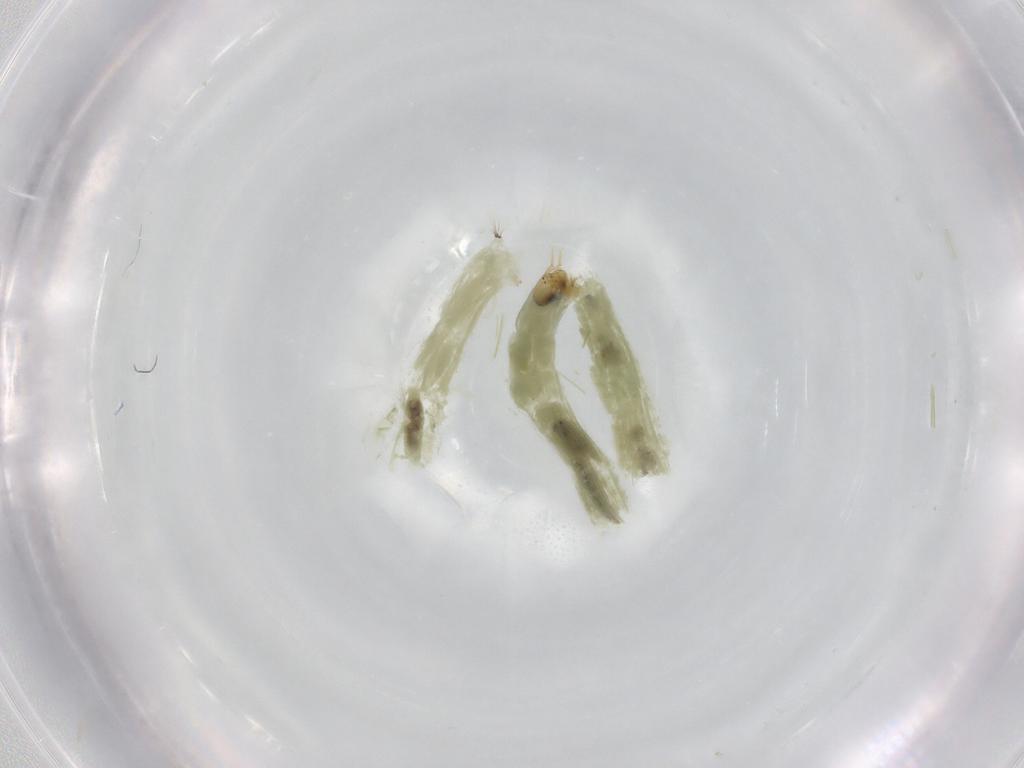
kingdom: Animalia
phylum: Arthropoda
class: Insecta
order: Diptera
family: Chironomidae
